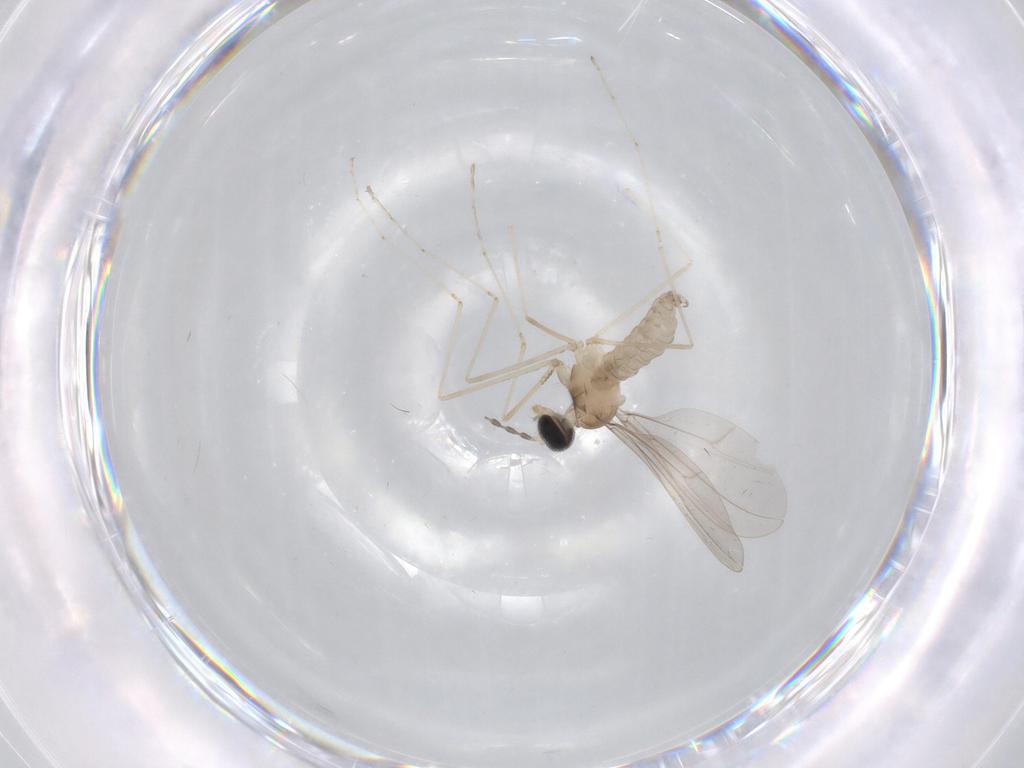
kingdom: Animalia
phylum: Arthropoda
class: Insecta
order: Diptera
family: Cecidomyiidae
